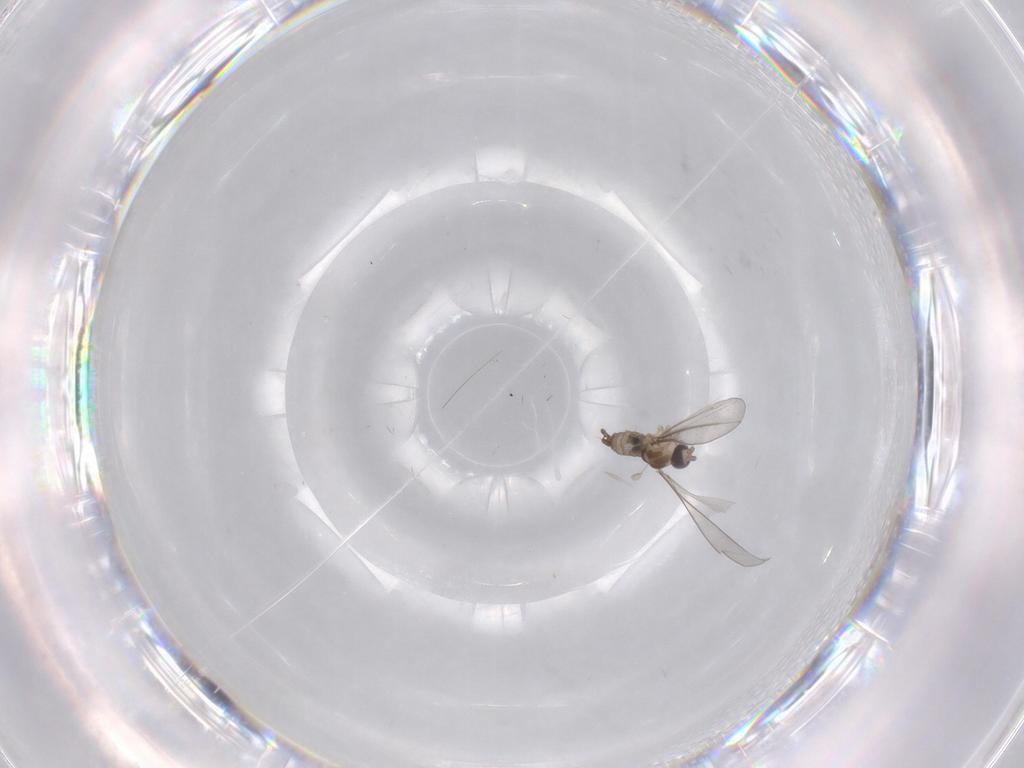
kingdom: Animalia
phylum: Arthropoda
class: Insecta
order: Diptera
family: Cecidomyiidae
